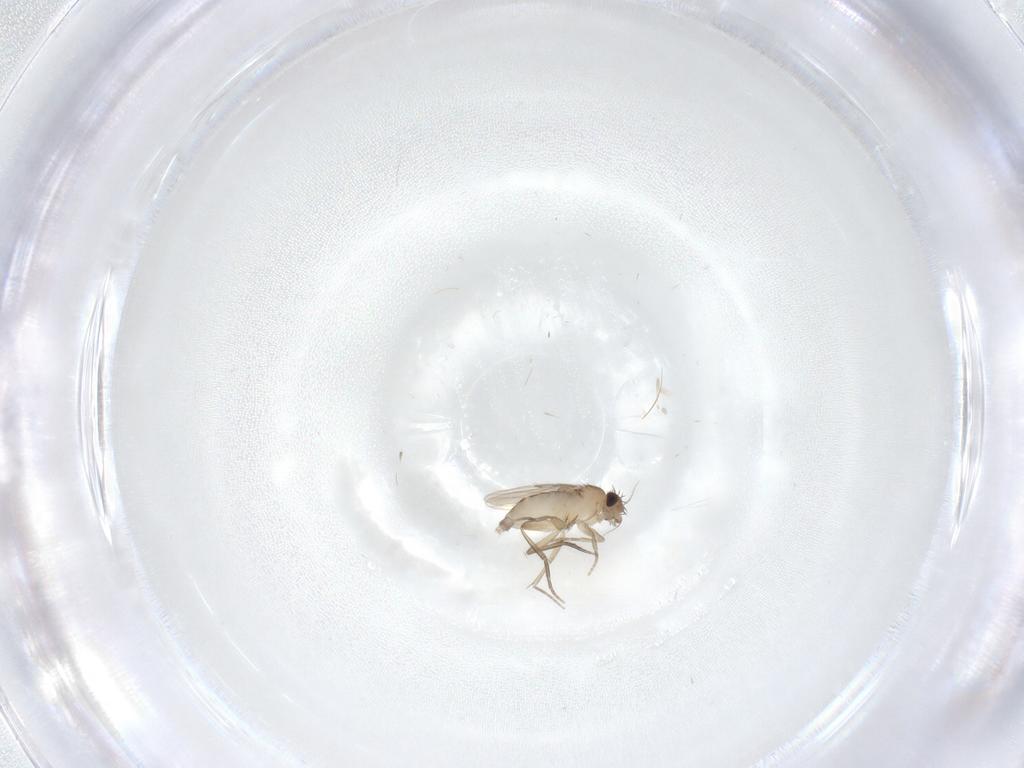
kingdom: Animalia
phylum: Arthropoda
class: Insecta
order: Diptera
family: Phoridae
